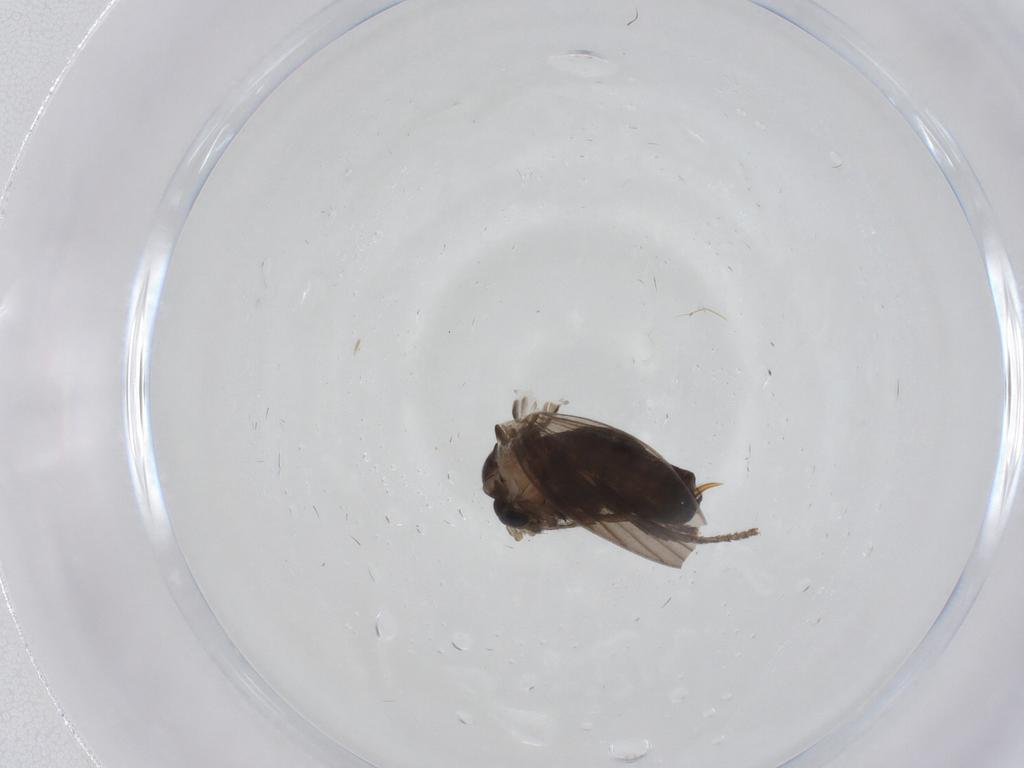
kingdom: Animalia
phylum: Arthropoda
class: Insecta
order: Diptera
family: Psychodidae
